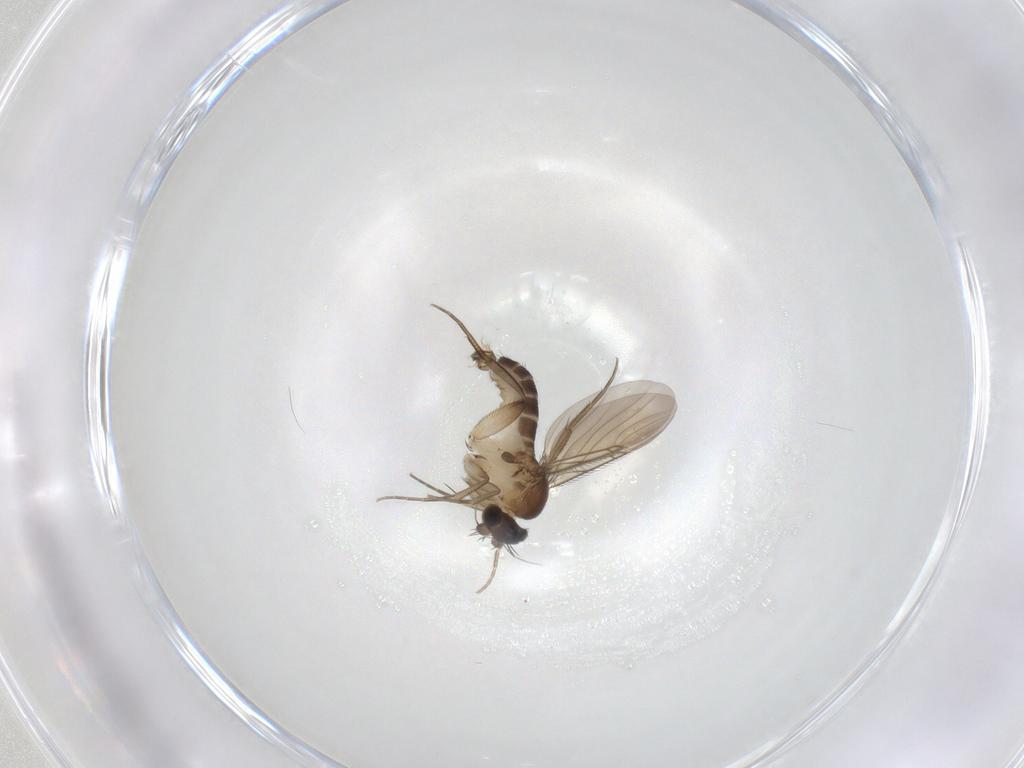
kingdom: Animalia
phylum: Arthropoda
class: Insecta
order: Diptera
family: Phoridae
